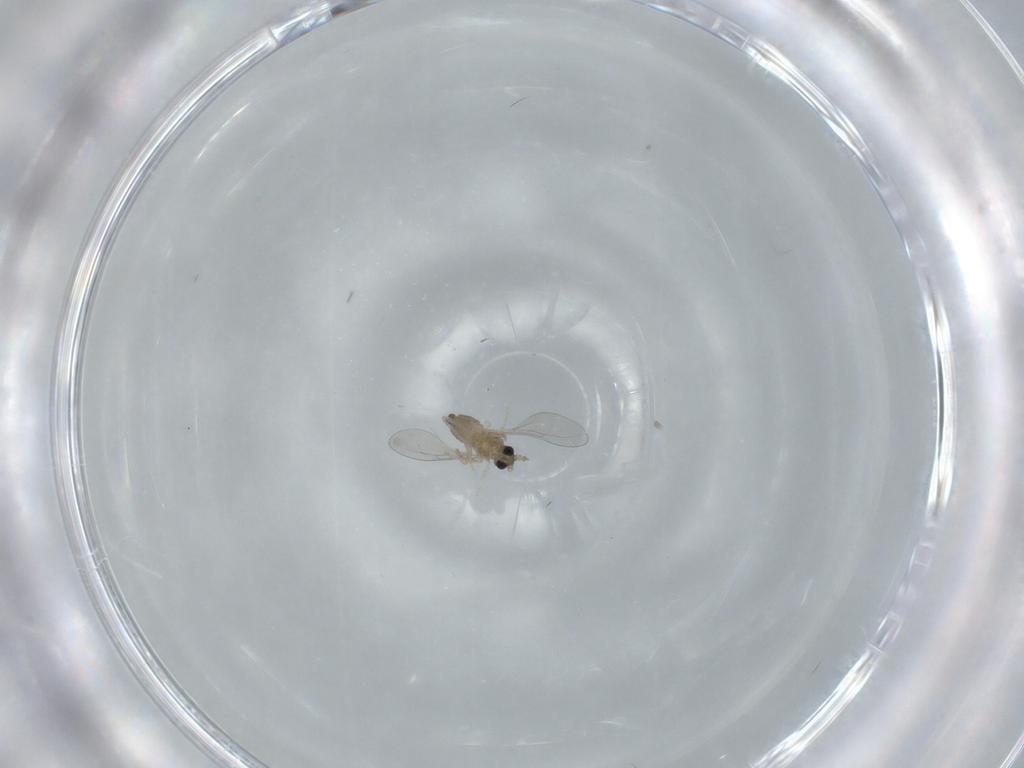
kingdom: Animalia
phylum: Arthropoda
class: Insecta
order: Diptera
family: Cecidomyiidae
